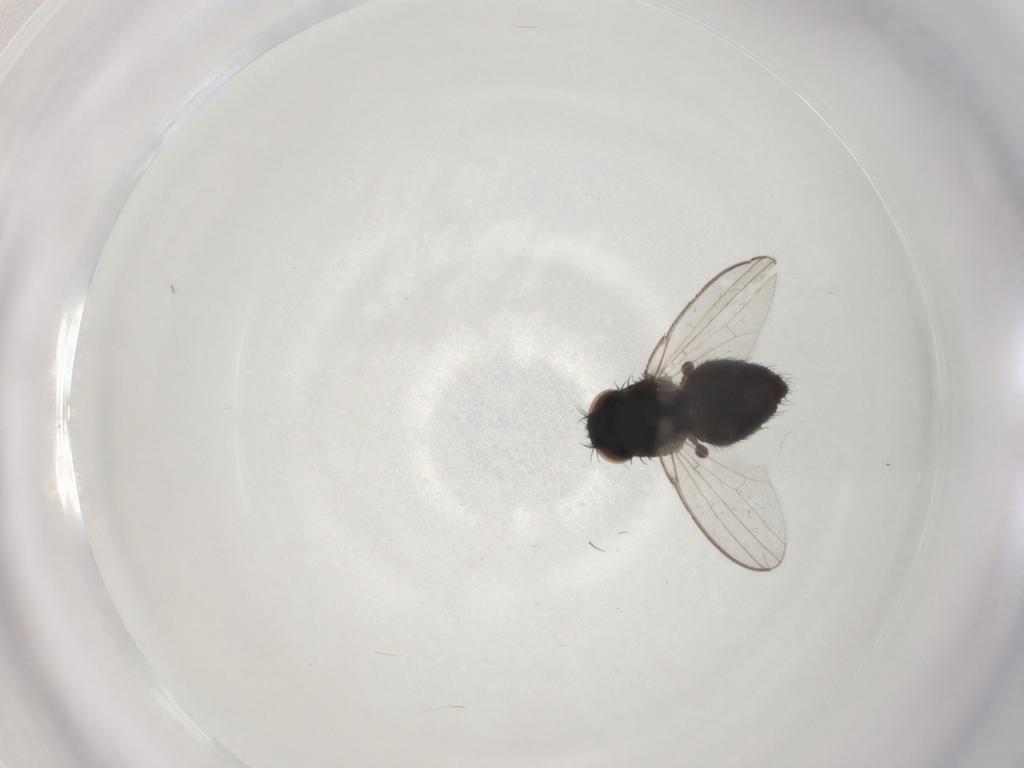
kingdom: Animalia
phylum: Arthropoda
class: Insecta
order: Diptera
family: Milichiidae
